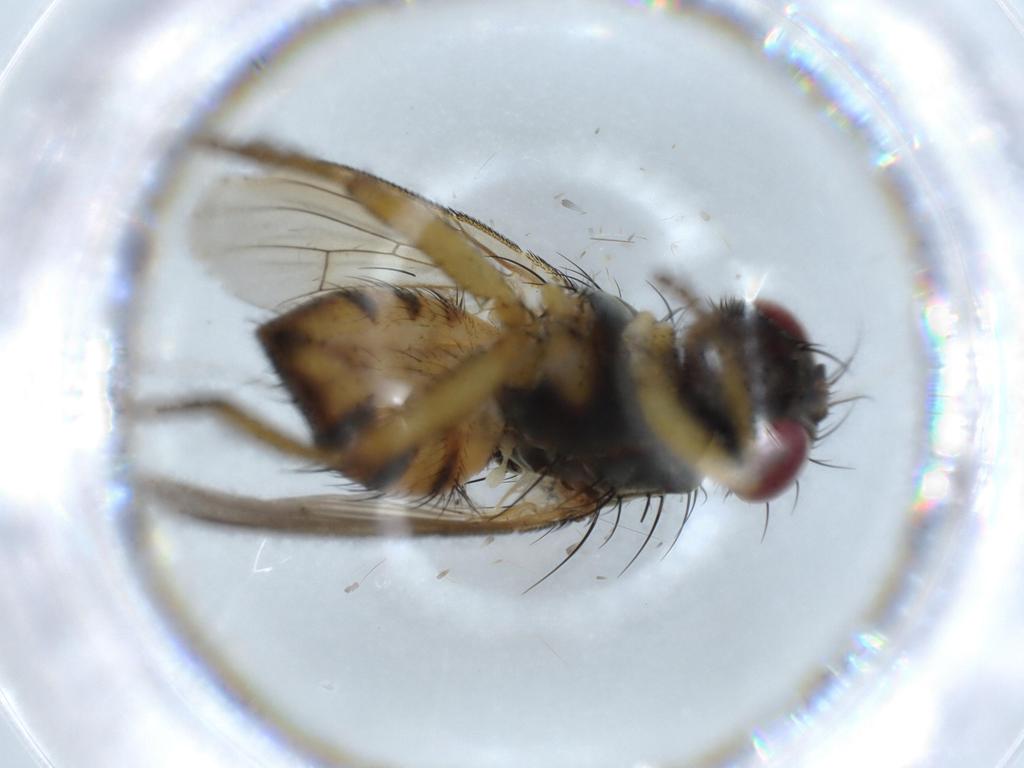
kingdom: Animalia
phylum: Arthropoda
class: Insecta
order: Diptera
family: Muscidae
